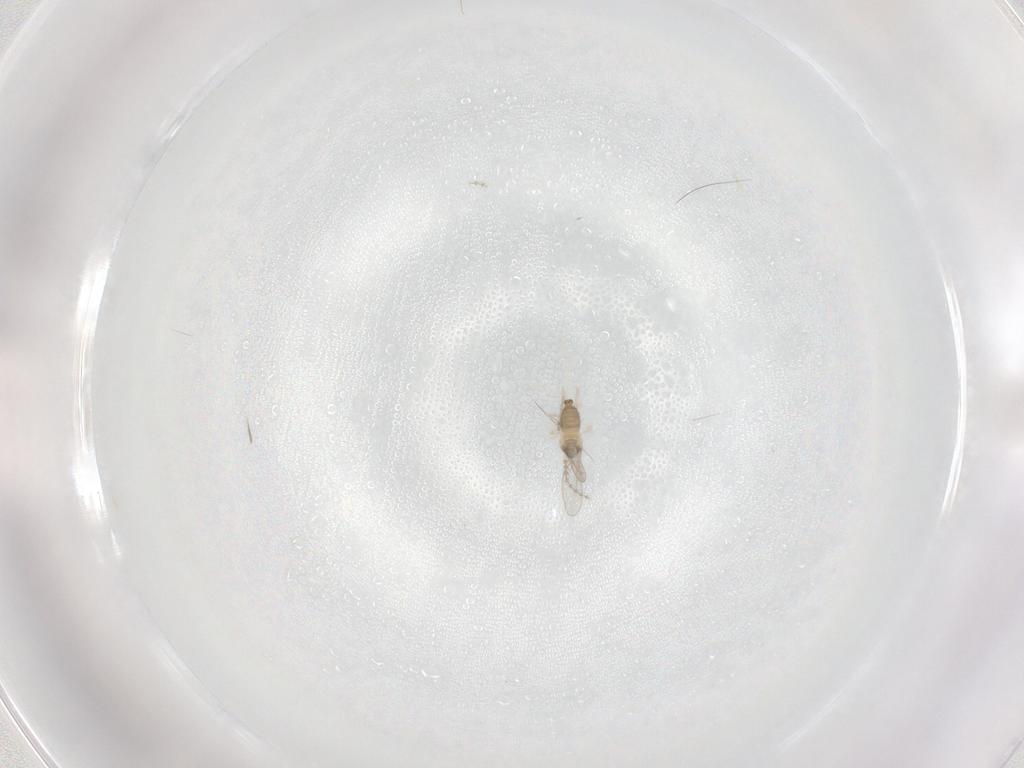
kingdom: Animalia
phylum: Arthropoda
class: Insecta
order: Diptera
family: Cecidomyiidae
